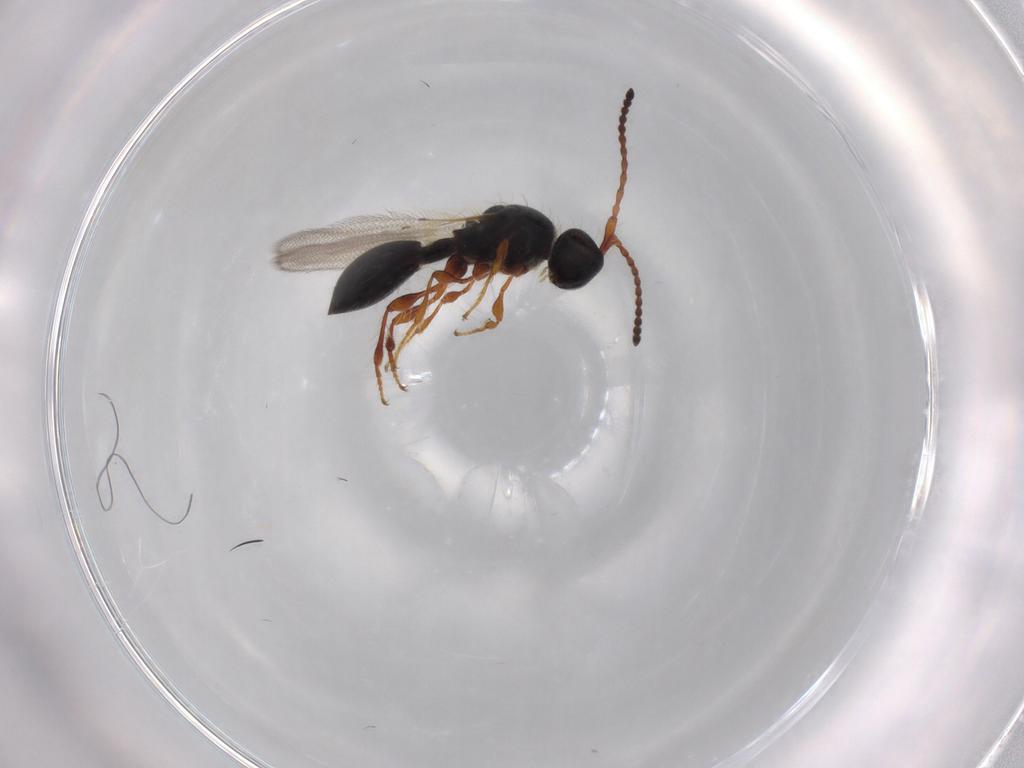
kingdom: Animalia
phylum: Arthropoda
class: Insecta
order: Hymenoptera
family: Diapriidae
